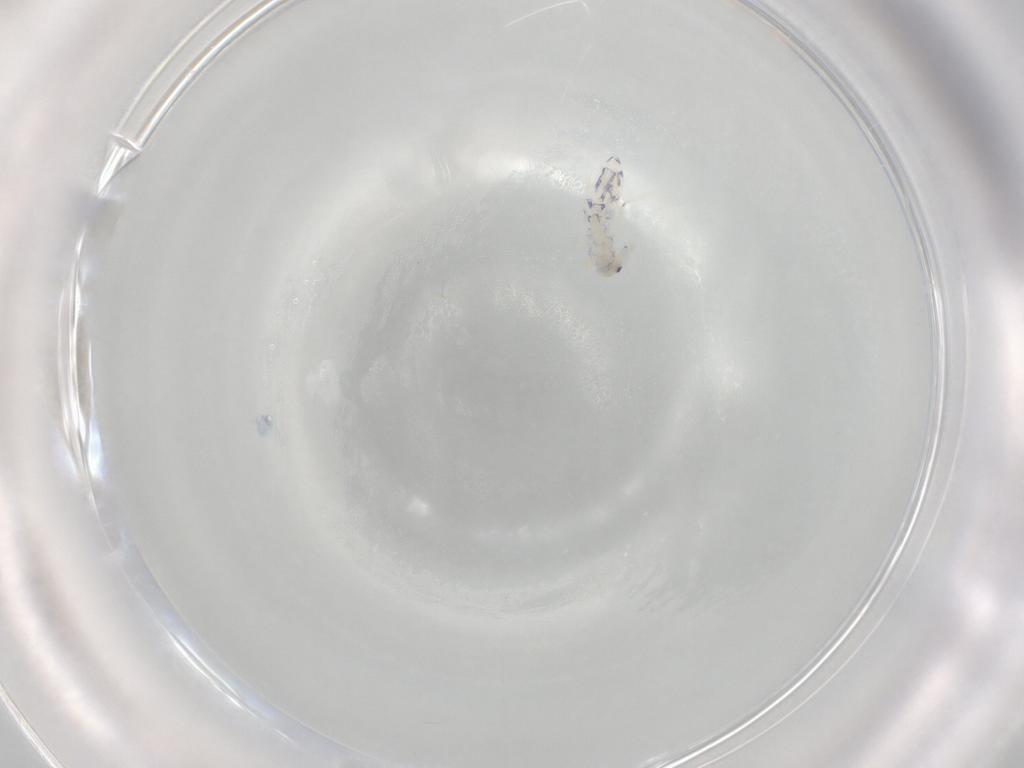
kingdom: Animalia
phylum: Arthropoda
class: Collembola
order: Entomobryomorpha
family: Entomobryidae
